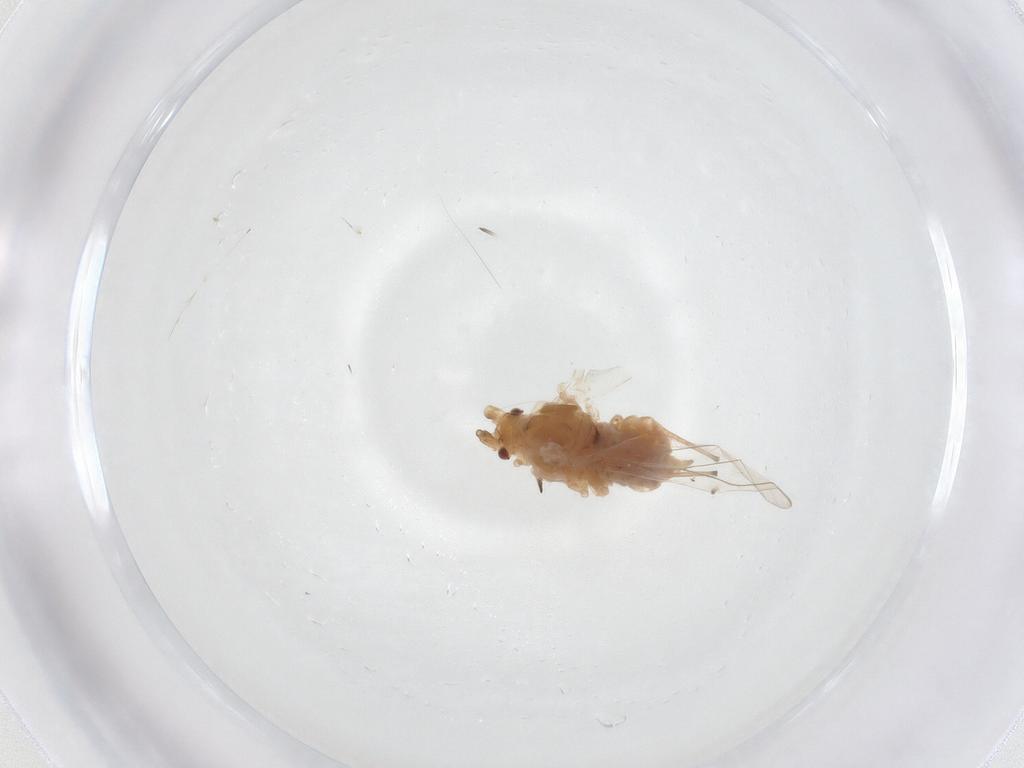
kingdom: Animalia
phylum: Arthropoda
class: Insecta
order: Hemiptera
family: Aphididae
